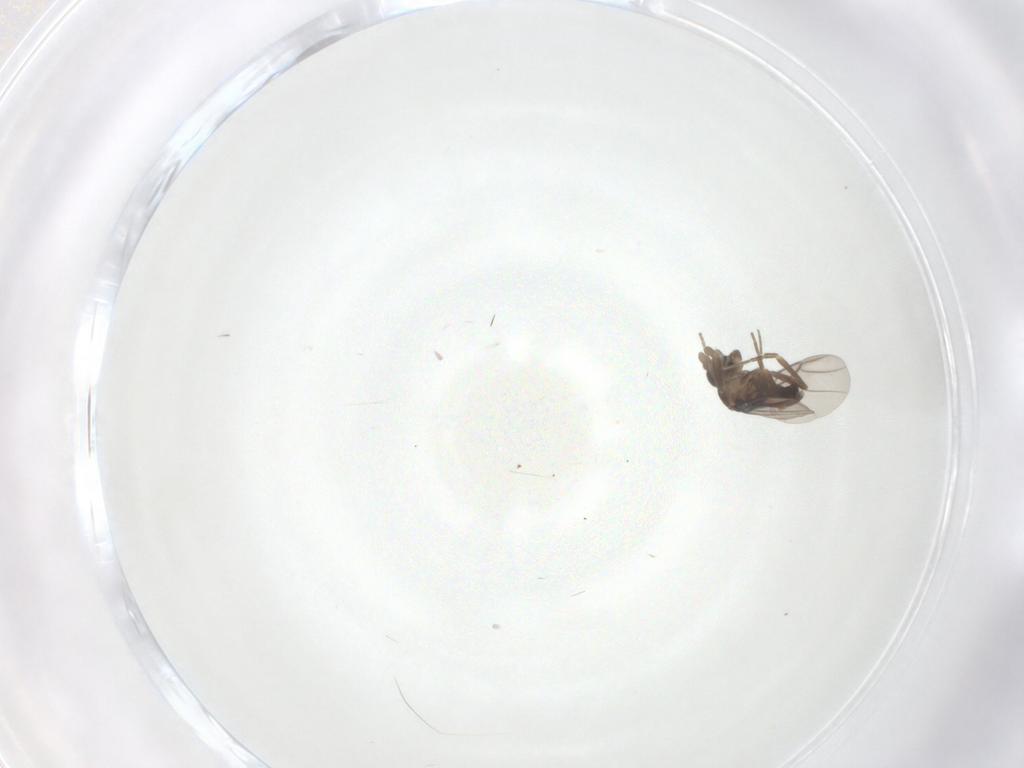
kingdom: Animalia
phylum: Arthropoda
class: Insecta
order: Diptera
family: Phoridae
